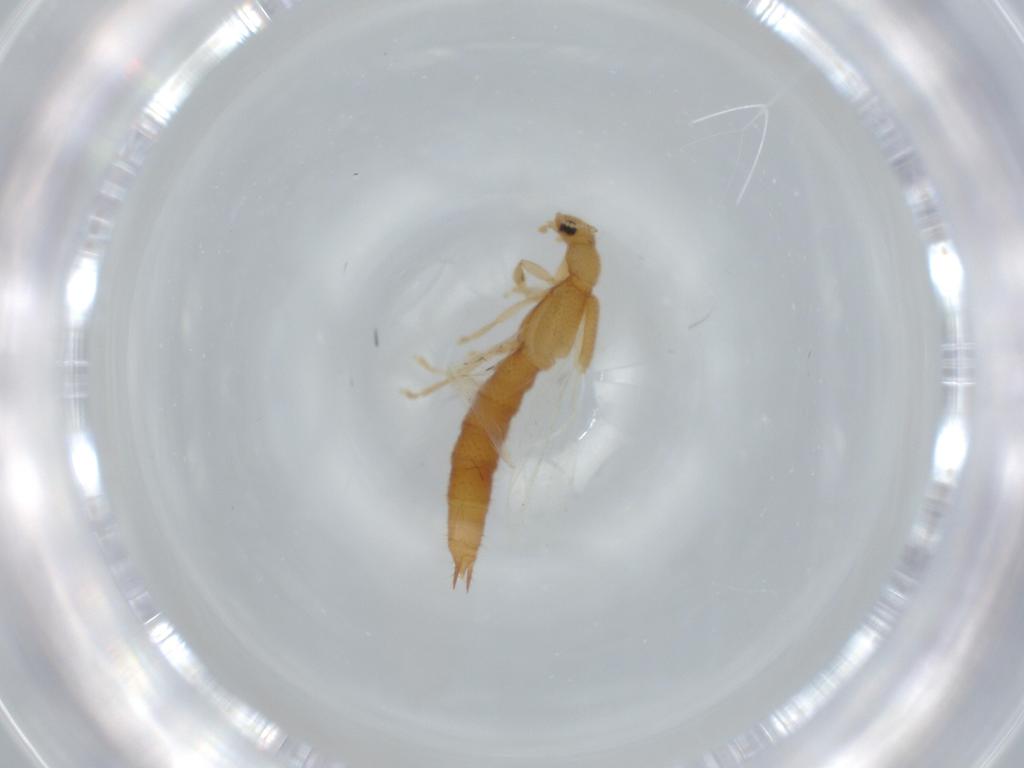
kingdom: Animalia
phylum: Arthropoda
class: Insecta
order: Coleoptera
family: Staphylinidae
